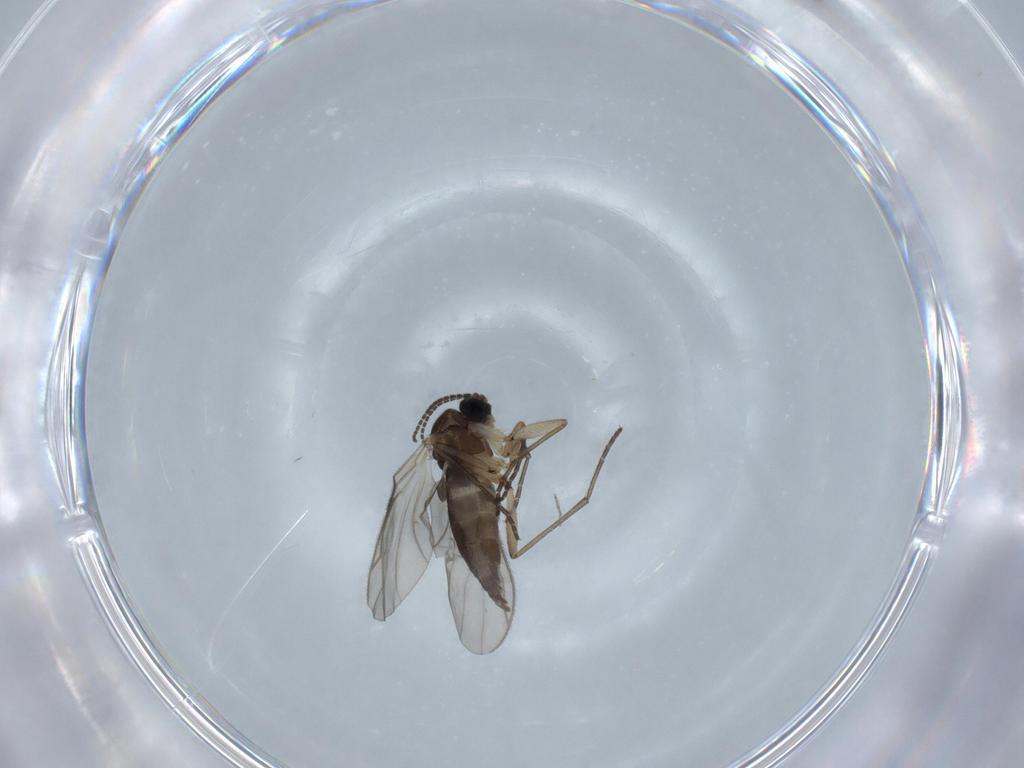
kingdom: Animalia
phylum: Arthropoda
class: Insecta
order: Diptera
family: Sciaridae
